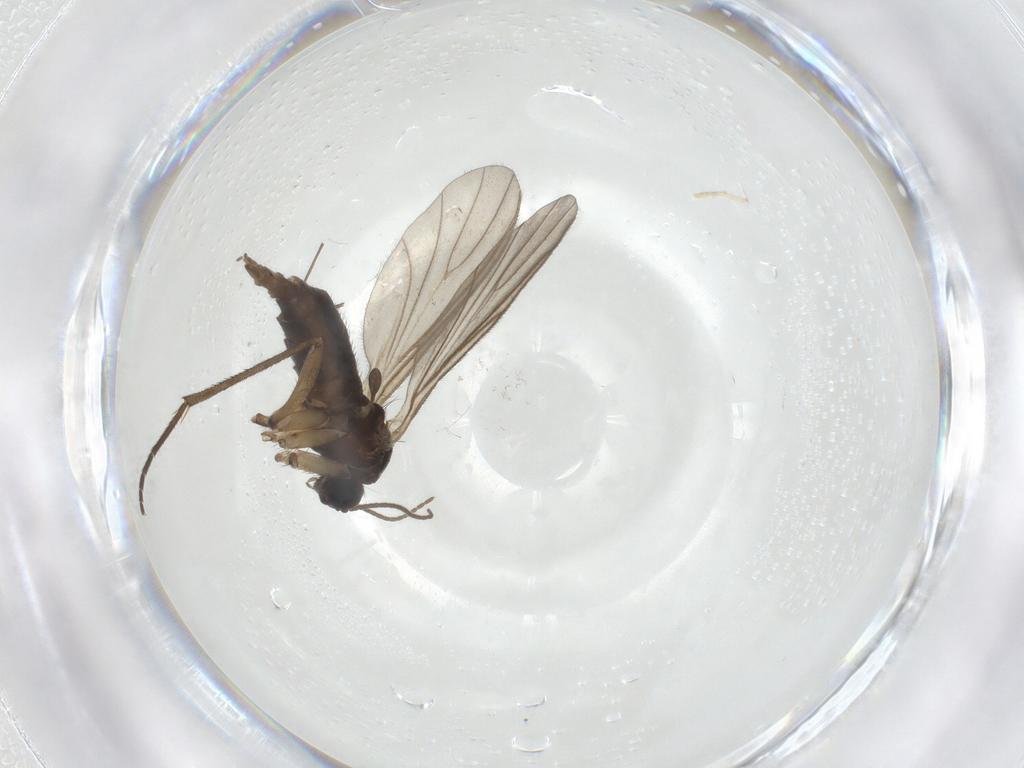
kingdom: Animalia
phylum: Arthropoda
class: Insecta
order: Diptera
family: Sciaridae
